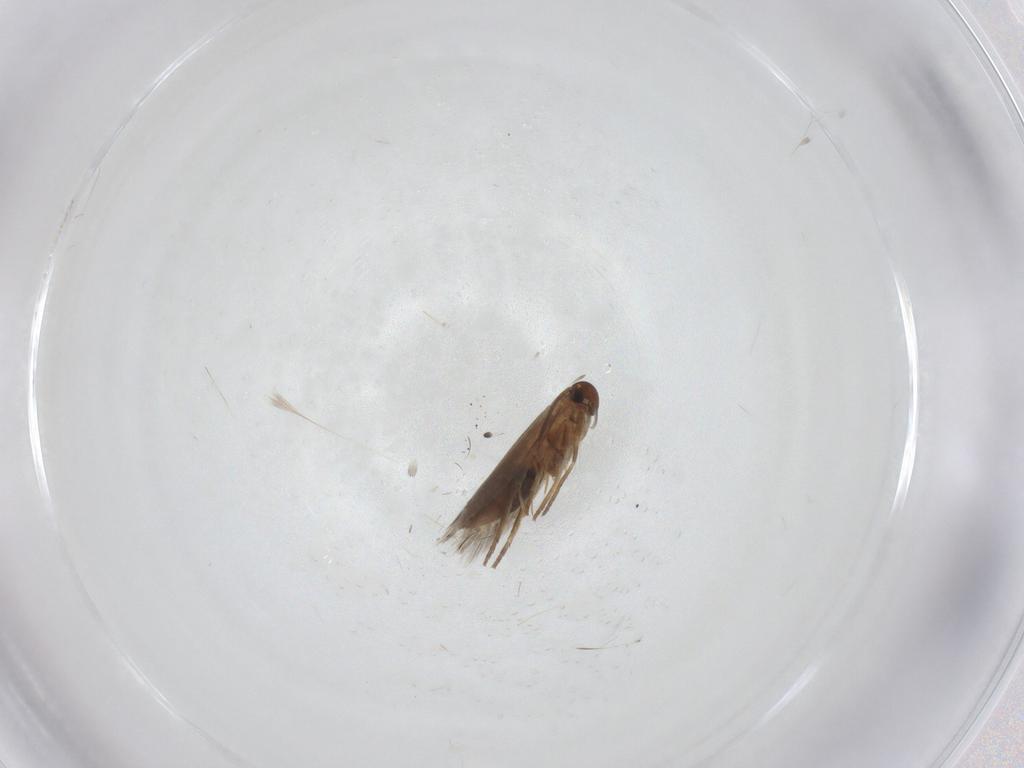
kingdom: Animalia
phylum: Arthropoda
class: Insecta
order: Lepidoptera
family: Heliozelidae
